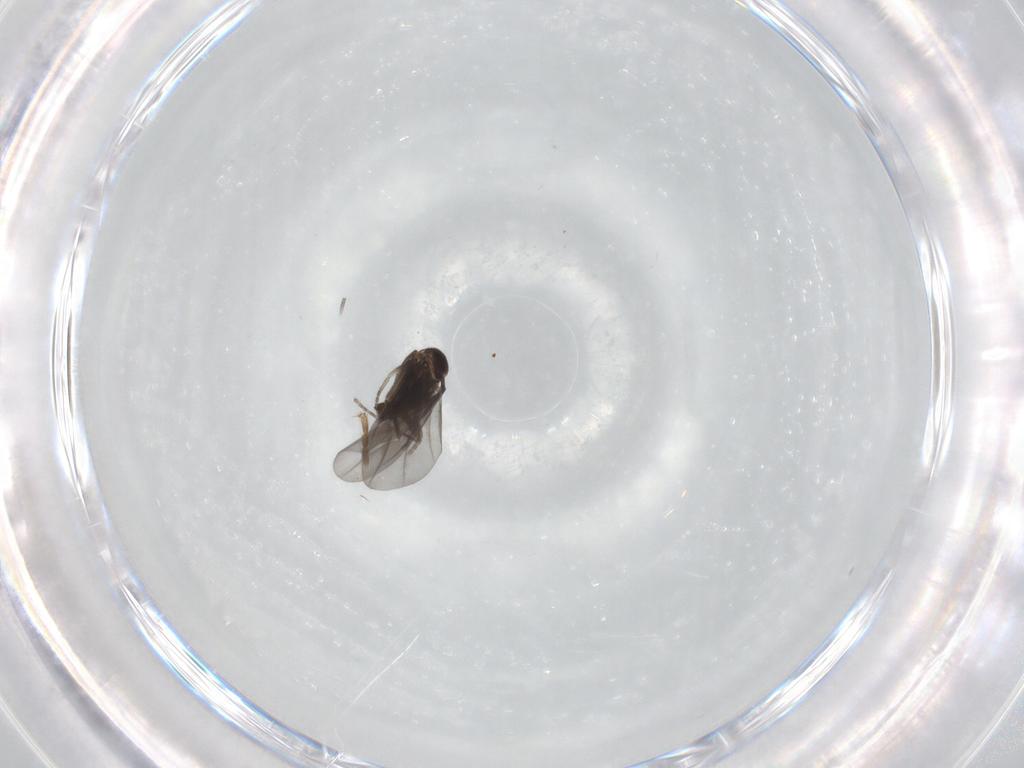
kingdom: Animalia
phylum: Arthropoda
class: Insecta
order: Diptera
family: Phoridae
